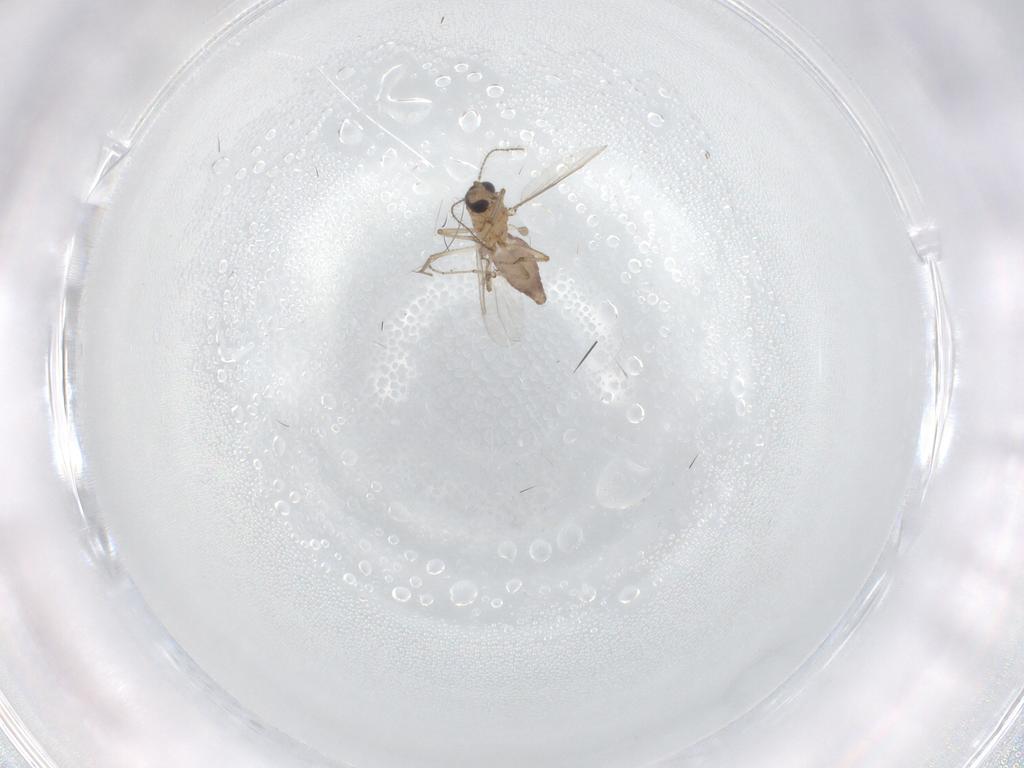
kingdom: Animalia
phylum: Arthropoda
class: Insecta
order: Diptera
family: Ceratopogonidae
